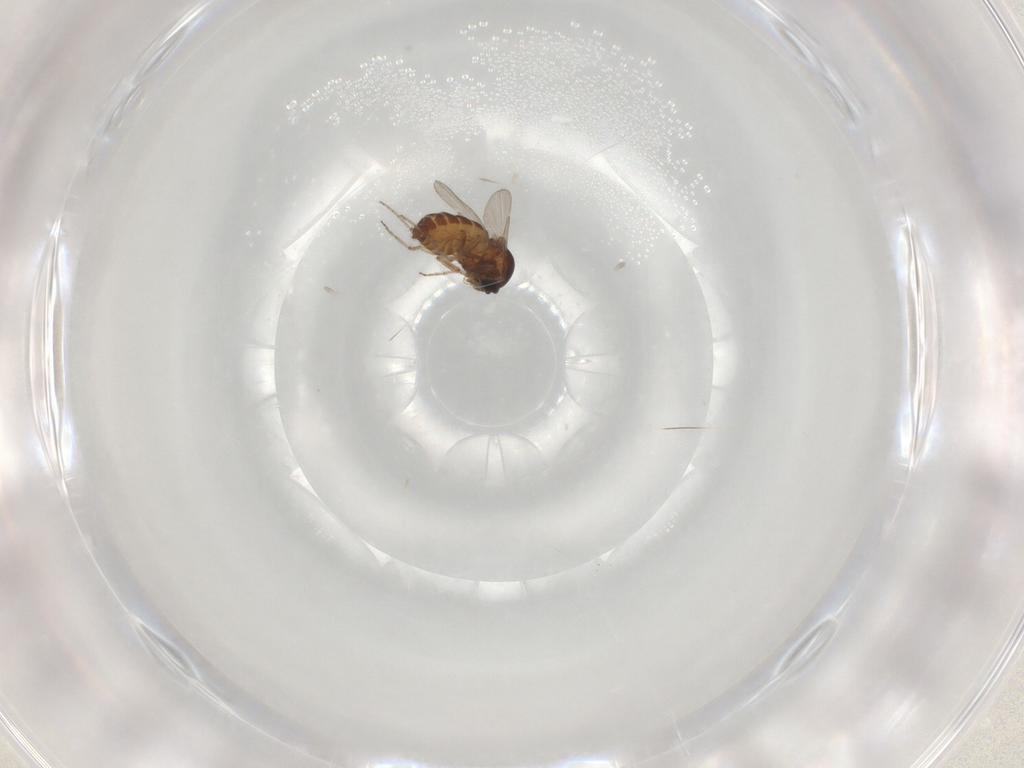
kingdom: Animalia
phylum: Arthropoda
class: Insecta
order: Diptera
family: Ceratopogonidae
